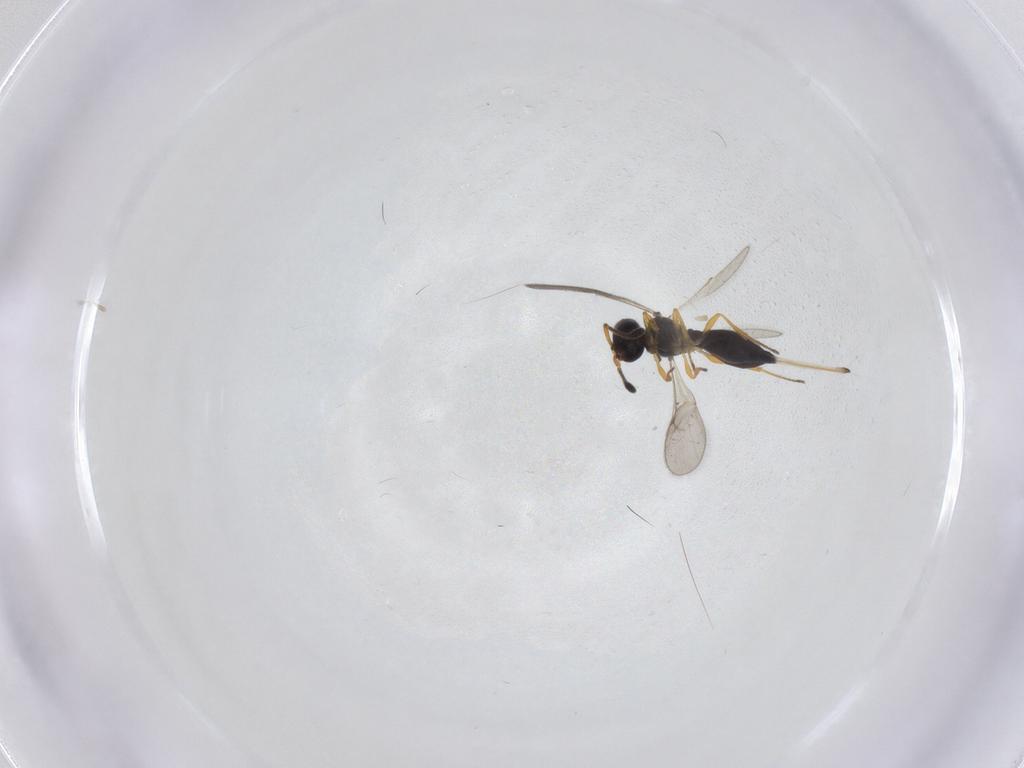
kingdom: Animalia
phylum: Arthropoda
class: Insecta
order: Hymenoptera
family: Scelionidae
